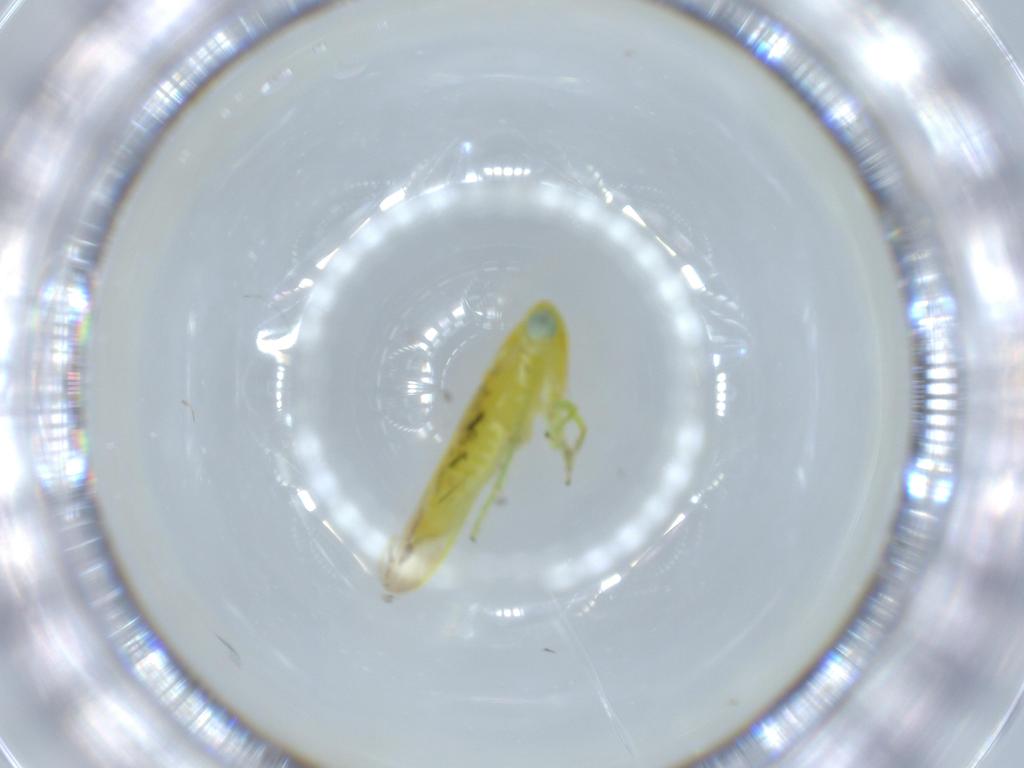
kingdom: Animalia
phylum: Arthropoda
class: Insecta
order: Hemiptera
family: Cicadellidae
